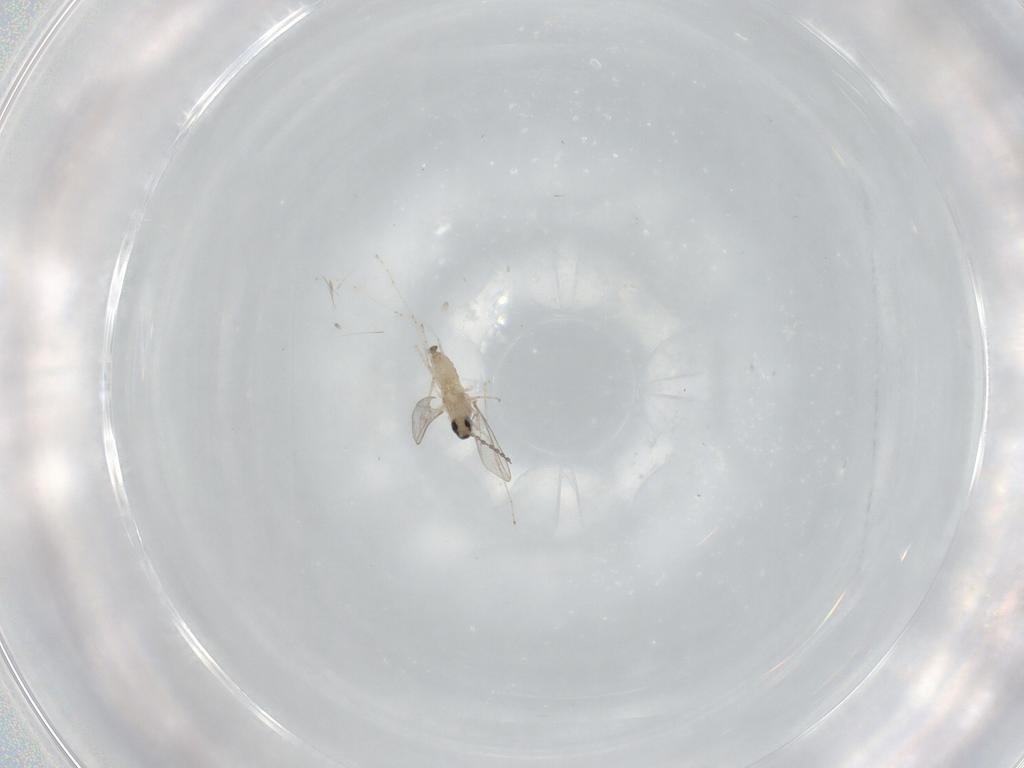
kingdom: Animalia
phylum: Arthropoda
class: Insecta
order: Diptera
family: Cecidomyiidae
